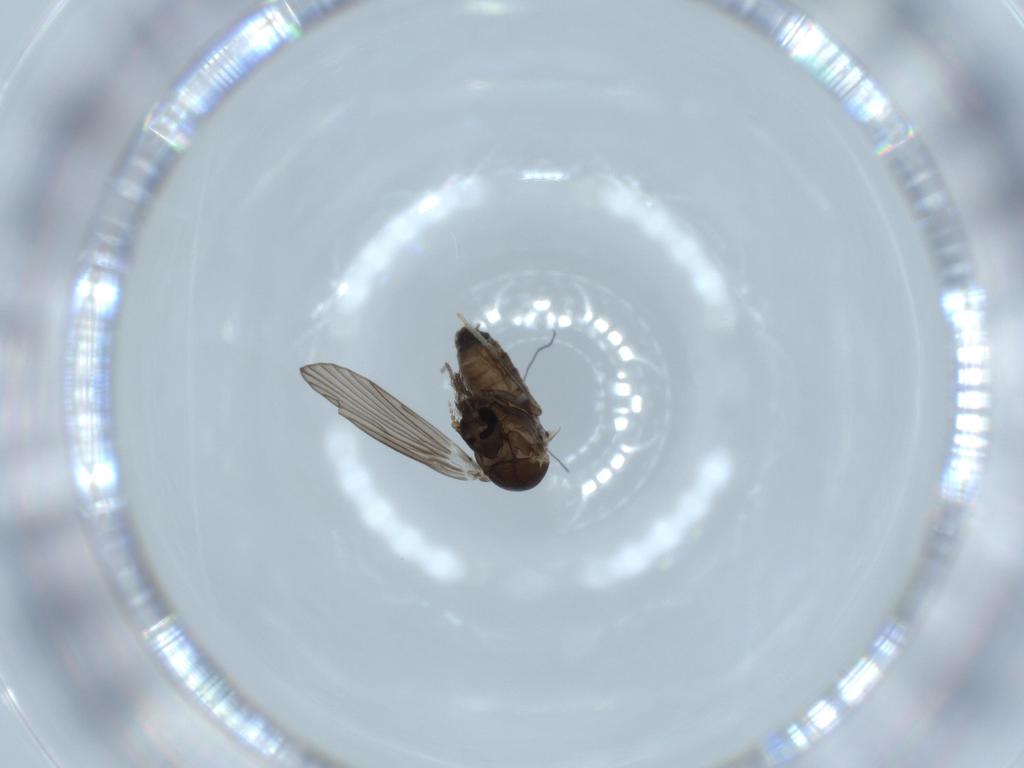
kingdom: Animalia
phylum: Arthropoda
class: Insecta
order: Diptera
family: Psychodidae
